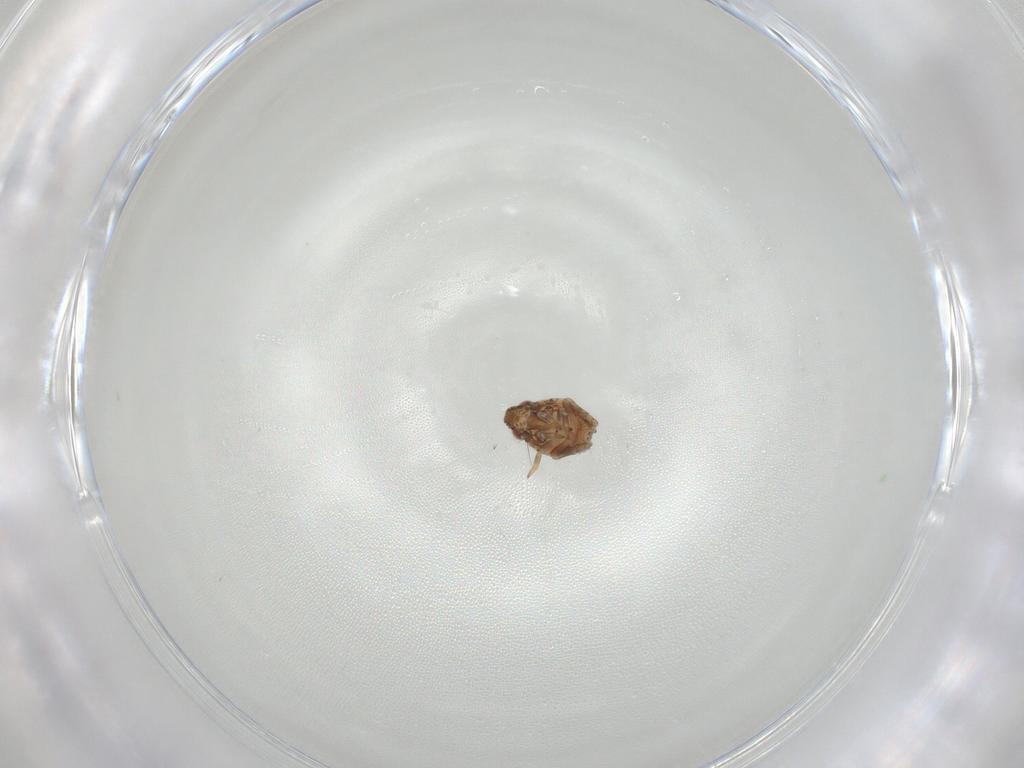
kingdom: Animalia
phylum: Arthropoda
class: Insecta
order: Hemiptera
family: Fulgoroidea_incertae_sedis
